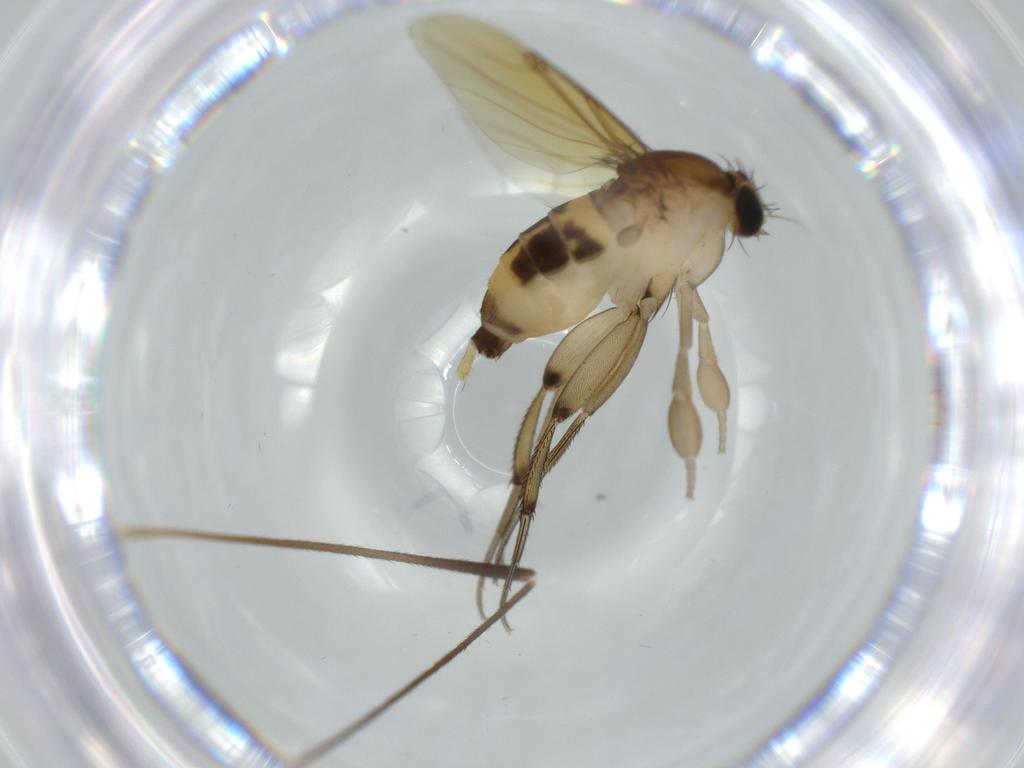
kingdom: Animalia
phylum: Arthropoda
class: Insecta
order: Diptera
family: Phoridae
